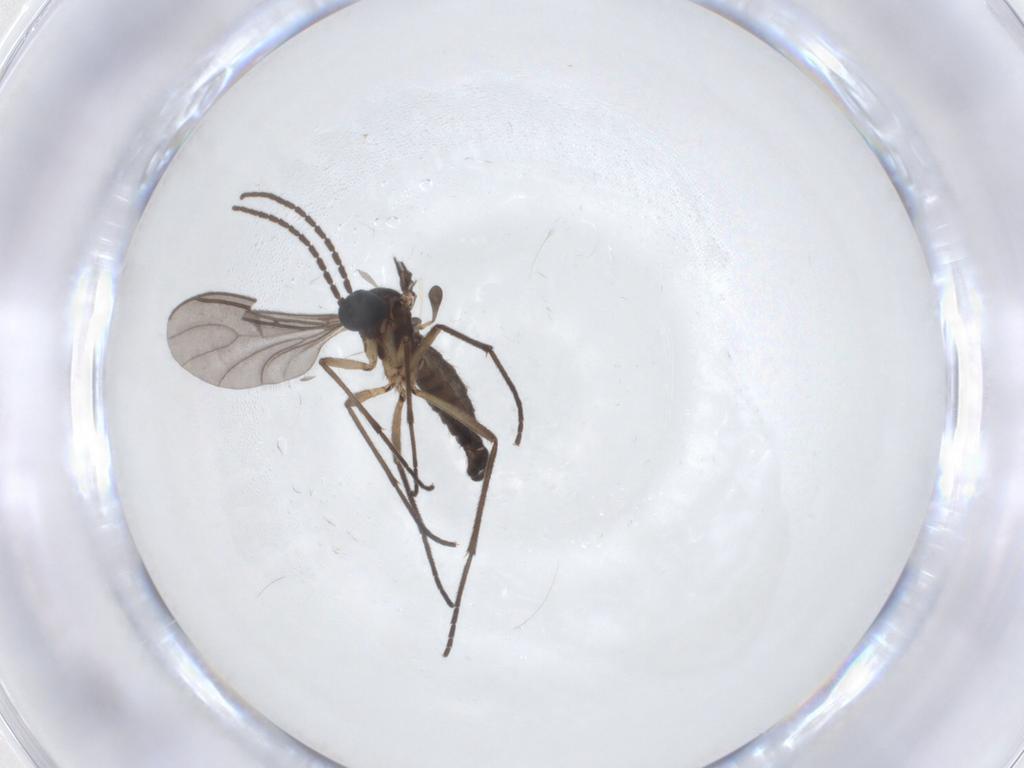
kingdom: Animalia
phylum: Arthropoda
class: Insecta
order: Diptera
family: Sciaridae
